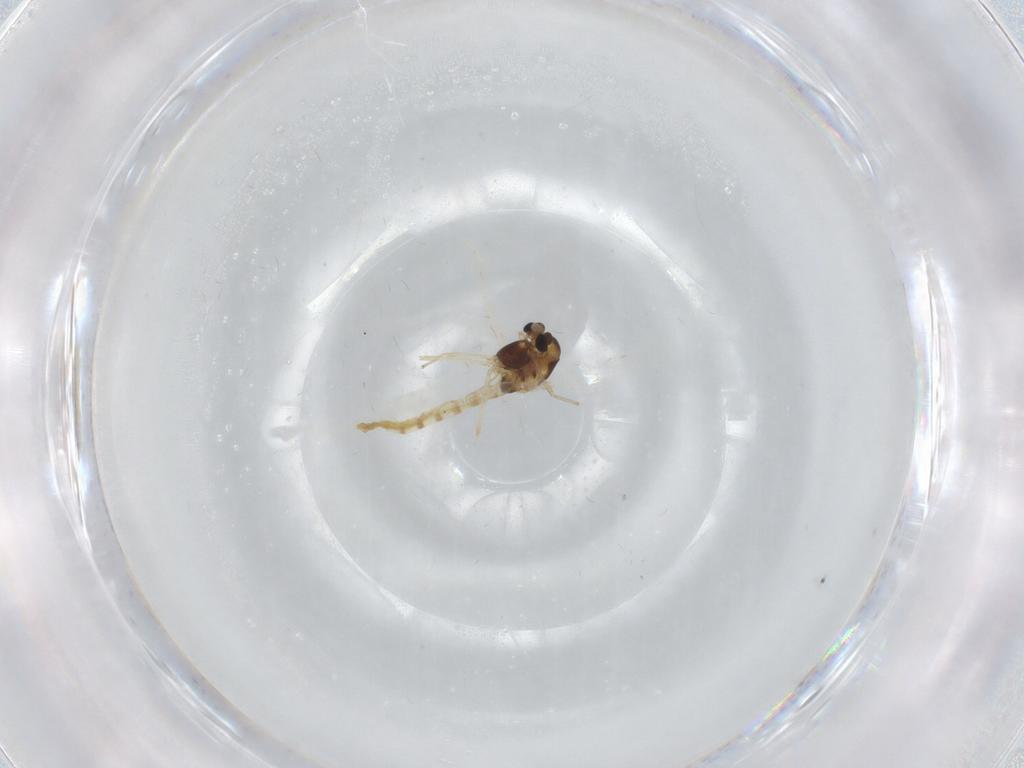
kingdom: Animalia
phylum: Arthropoda
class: Insecta
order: Diptera
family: Chironomidae
